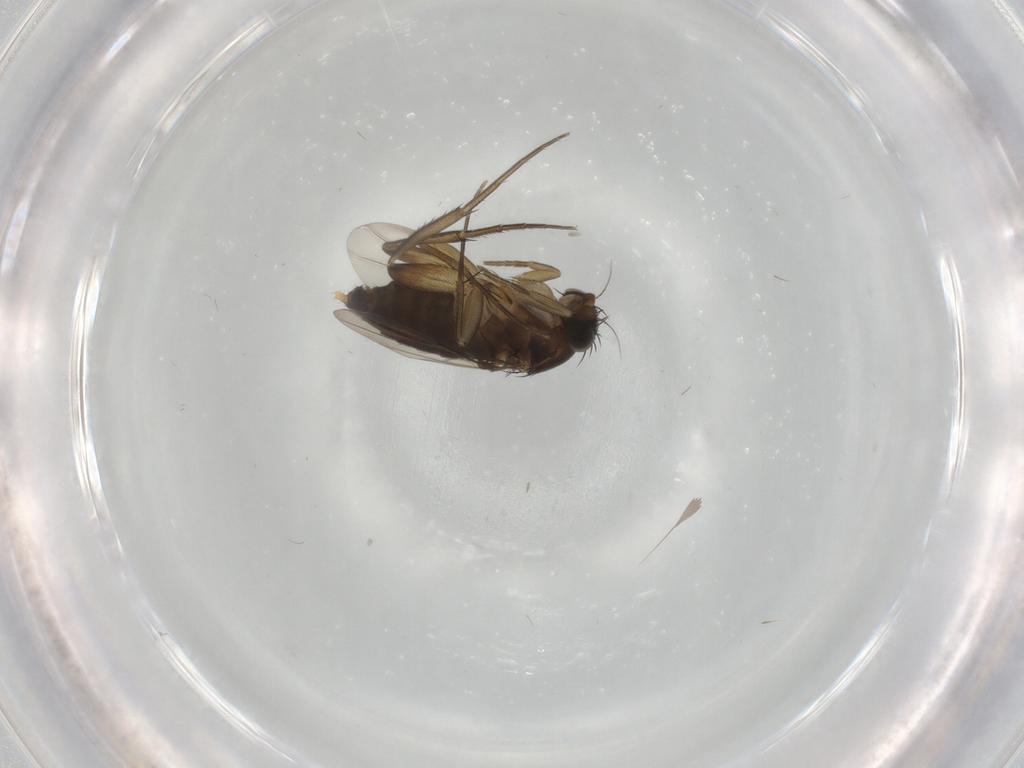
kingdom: Animalia
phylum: Arthropoda
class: Insecta
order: Diptera
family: Phoridae
